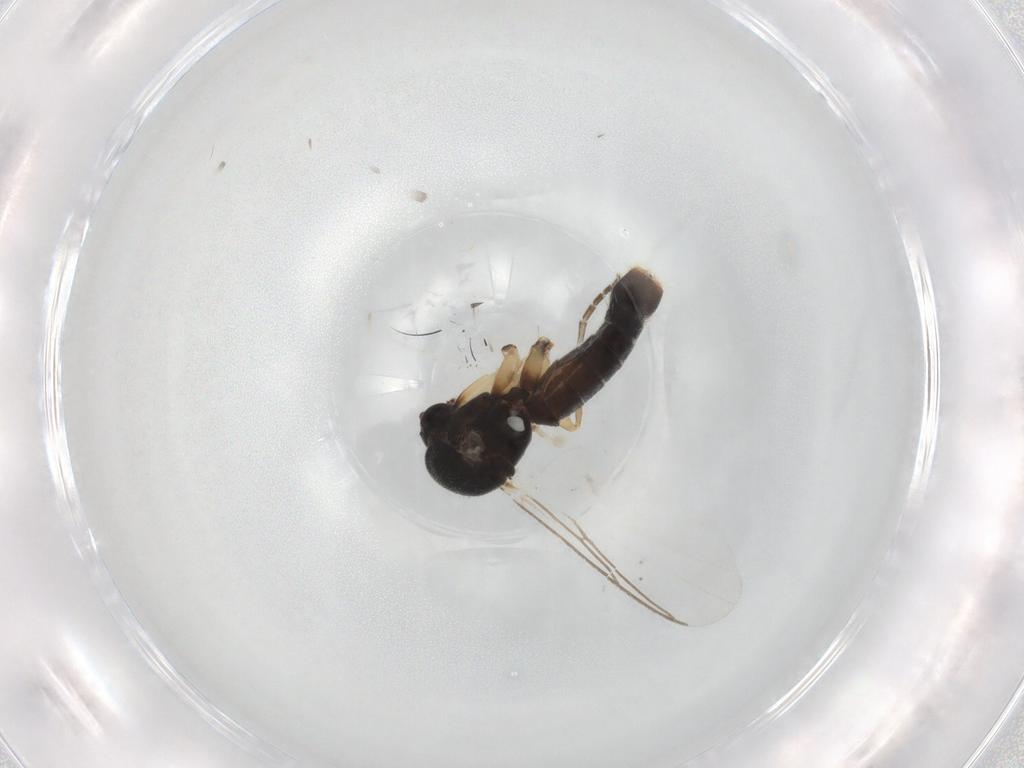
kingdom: Animalia
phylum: Arthropoda
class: Insecta
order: Diptera
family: Mycetophilidae
